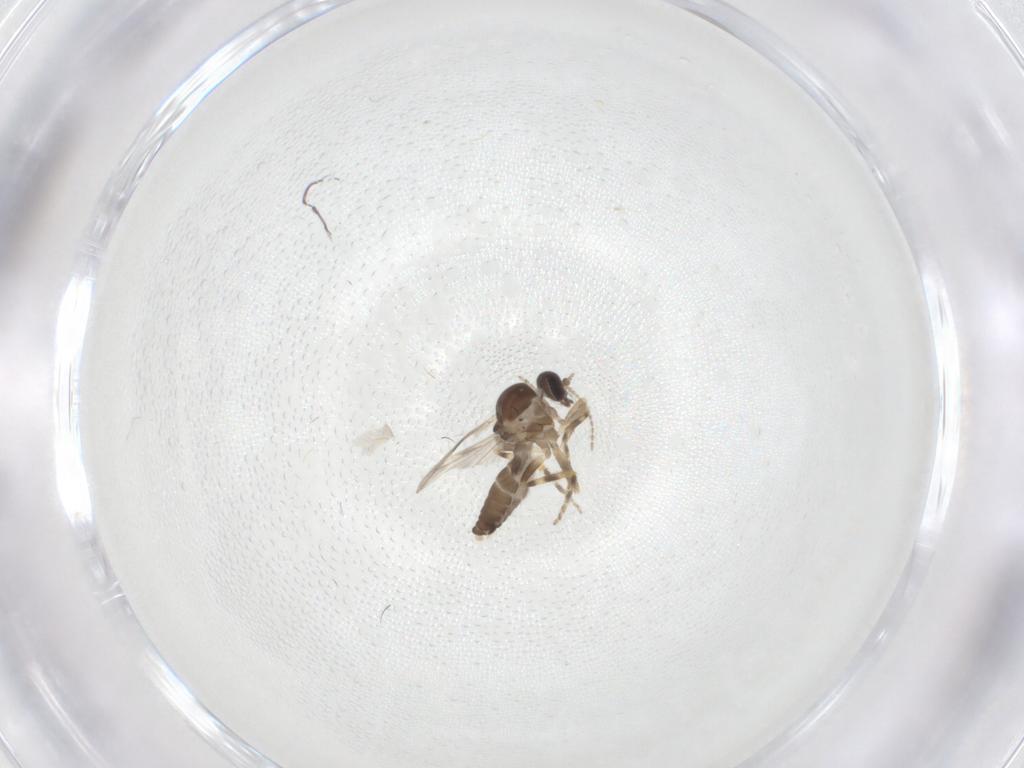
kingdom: Animalia
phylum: Arthropoda
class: Insecta
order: Diptera
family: Ceratopogonidae
